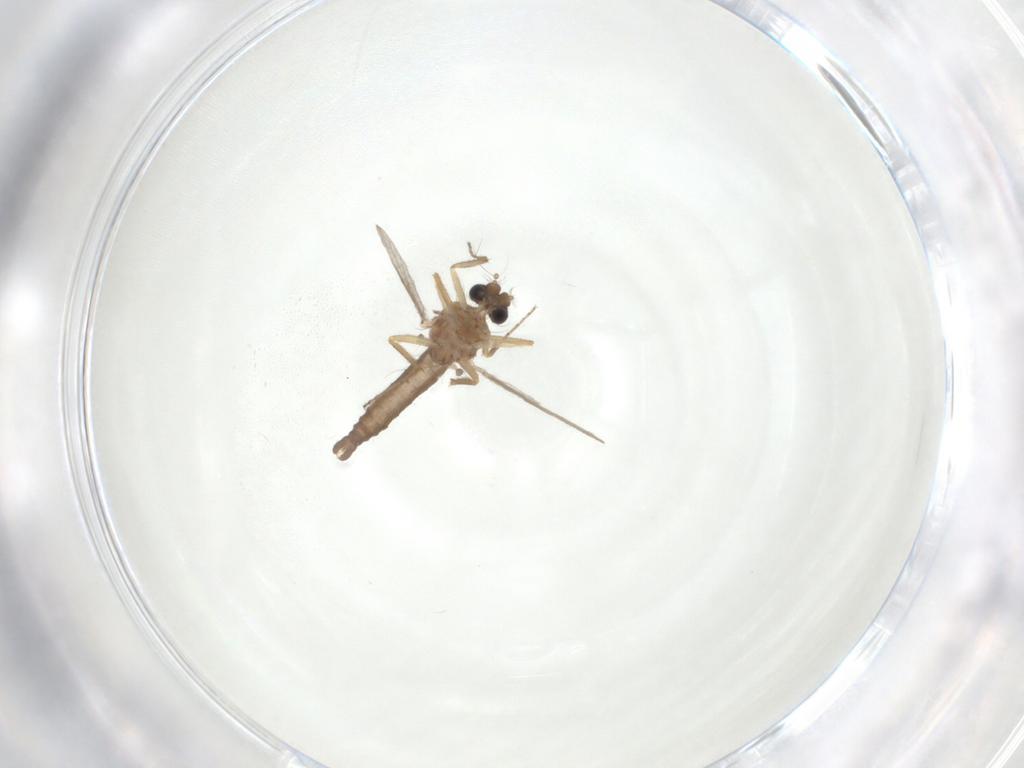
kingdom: Animalia
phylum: Arthropoda
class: Insecta
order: Diptera
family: Ceratopogonidae
